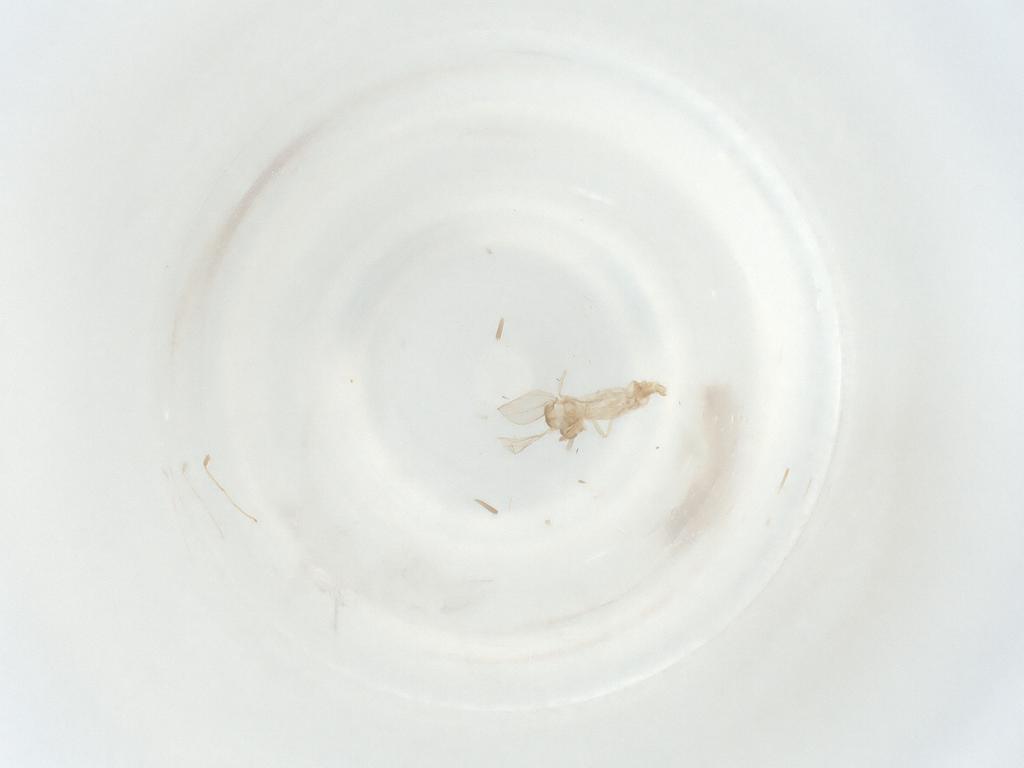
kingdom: Animalia
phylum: Arthropoda
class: Insecta
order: Diptera
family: Cecidomyiidae
